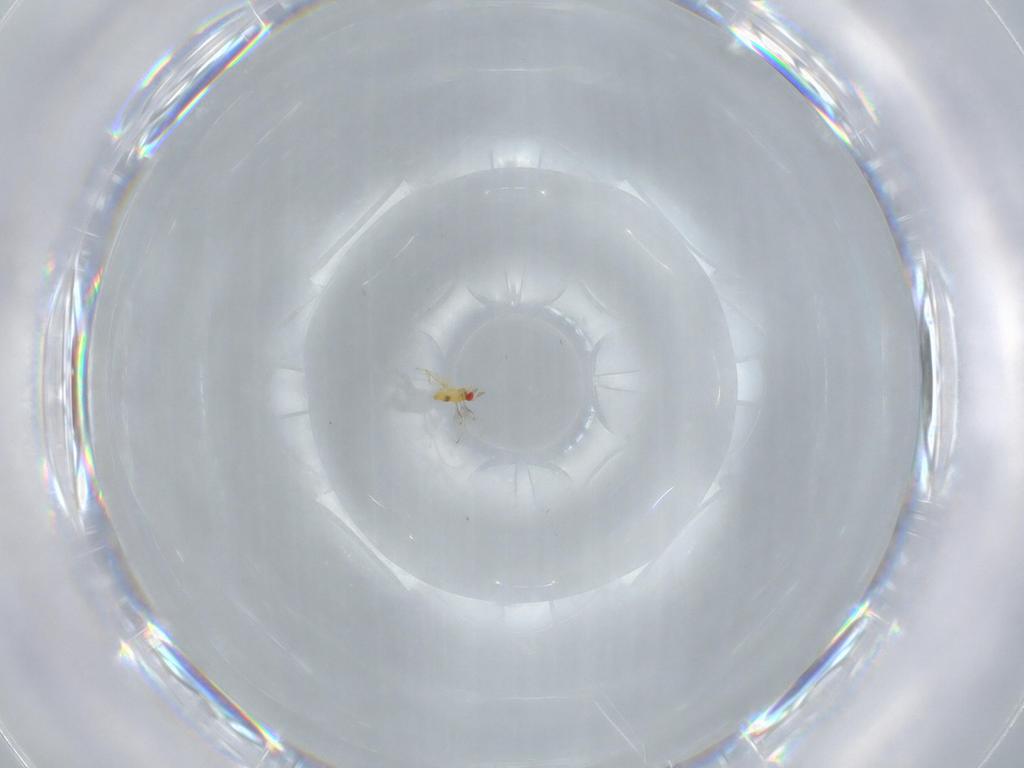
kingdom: Animalia
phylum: Arthropoda
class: Insecta
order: Hymenoptera
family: Trichogrammatidae
